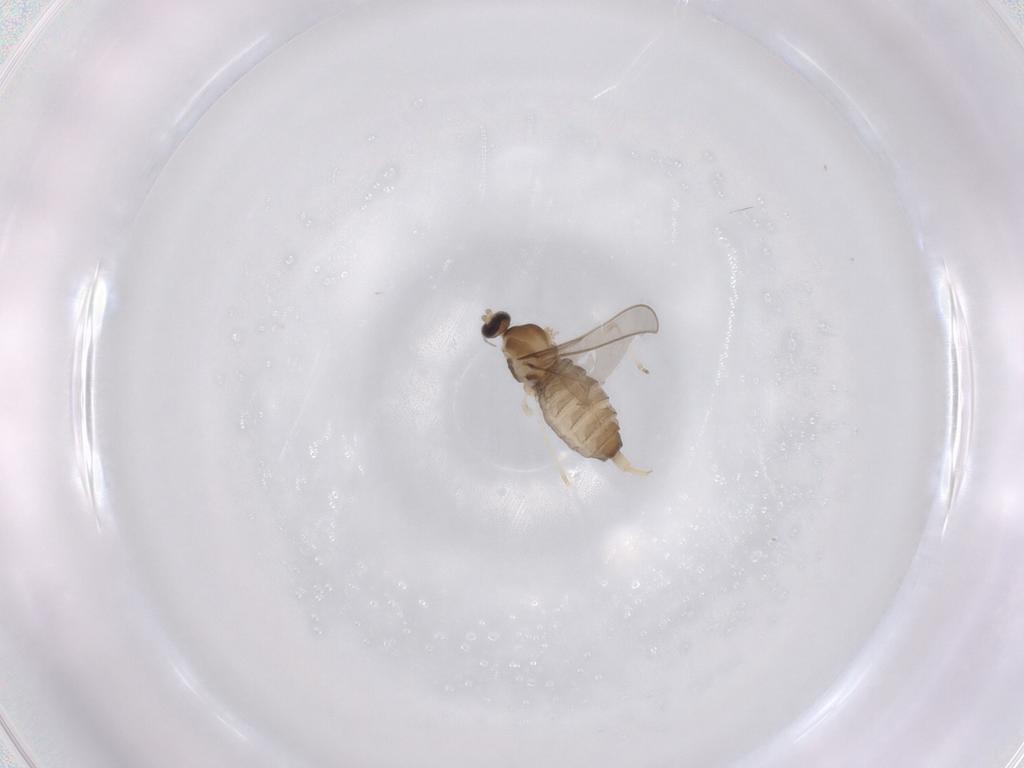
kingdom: Animalia
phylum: Arthropoda
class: Insecta
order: Diptera
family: Cecidomyiidae
